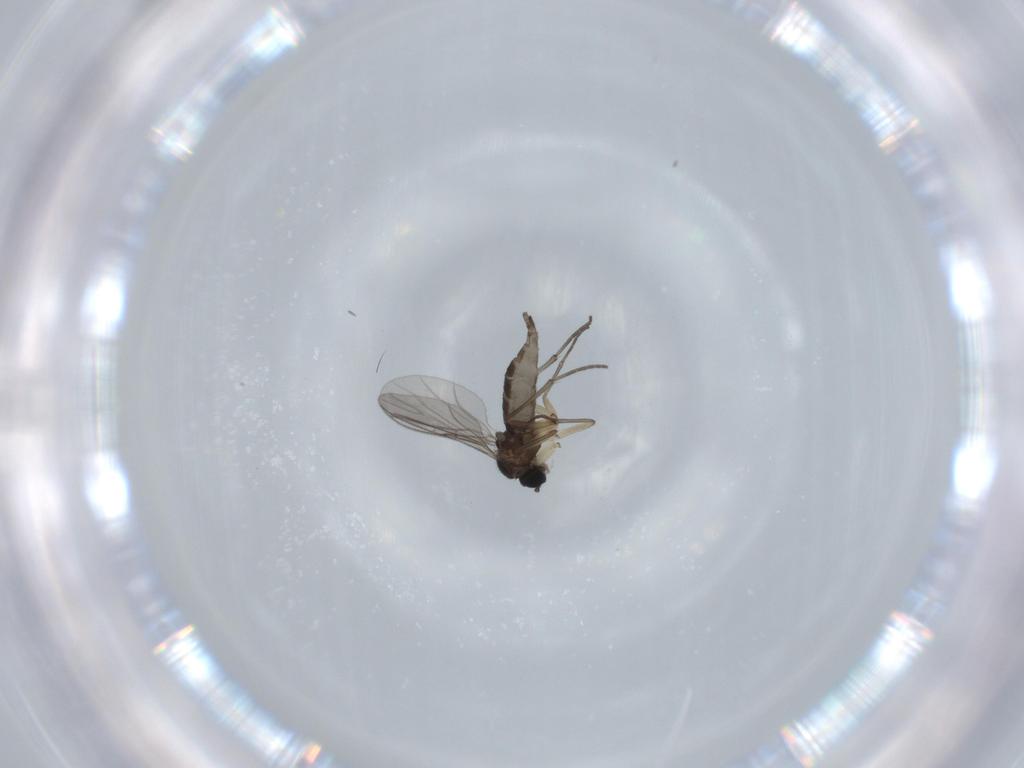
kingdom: Animalia
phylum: Arthropoda
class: Insecta
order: Diptera
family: Sciaridae
